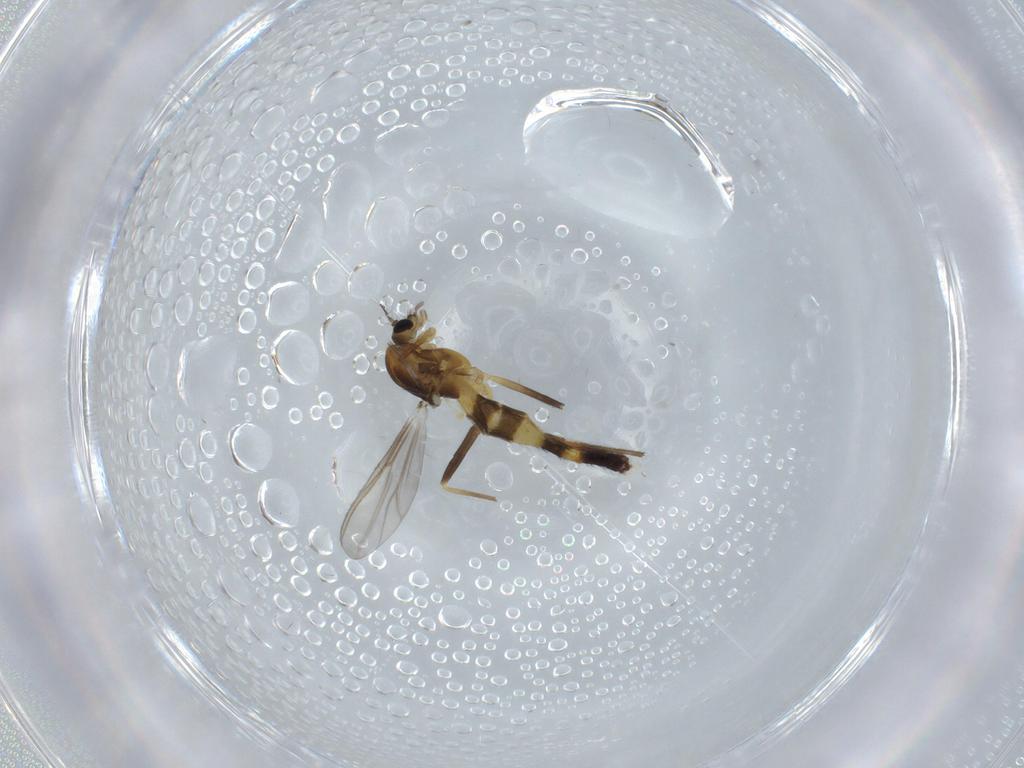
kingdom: Animalia
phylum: Arthropoda
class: Insecta
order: Diptera
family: Chironomidae
